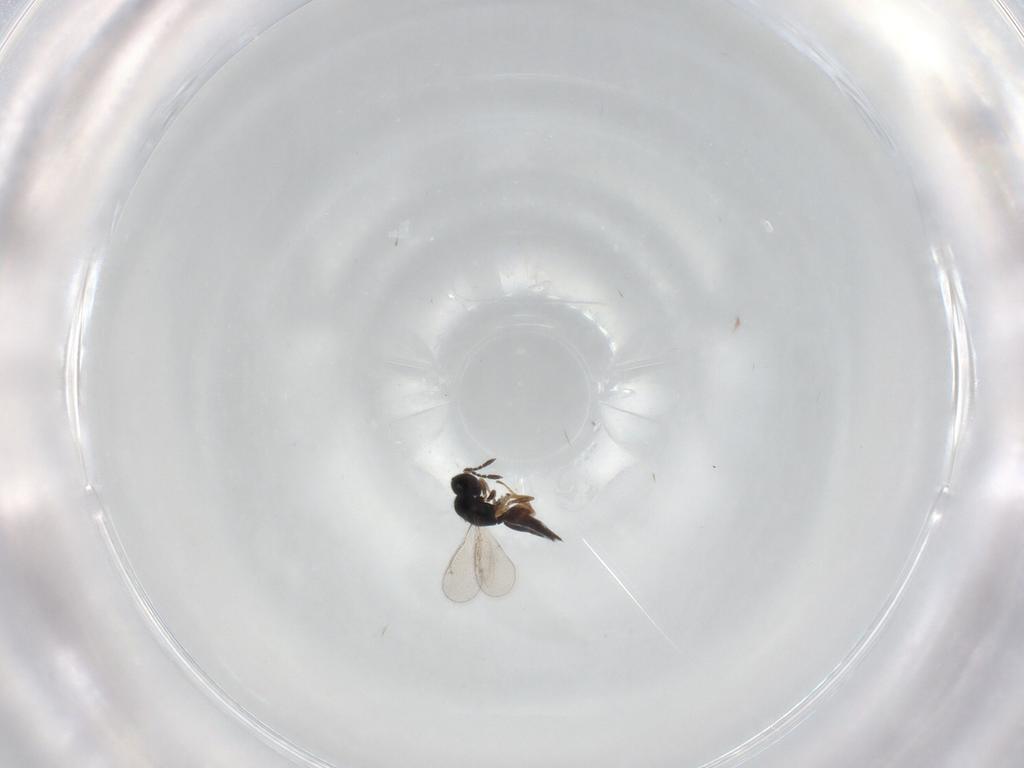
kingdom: Animalia
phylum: Arthropoda
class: Insecta
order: Hymenoptera
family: Eulophidae
